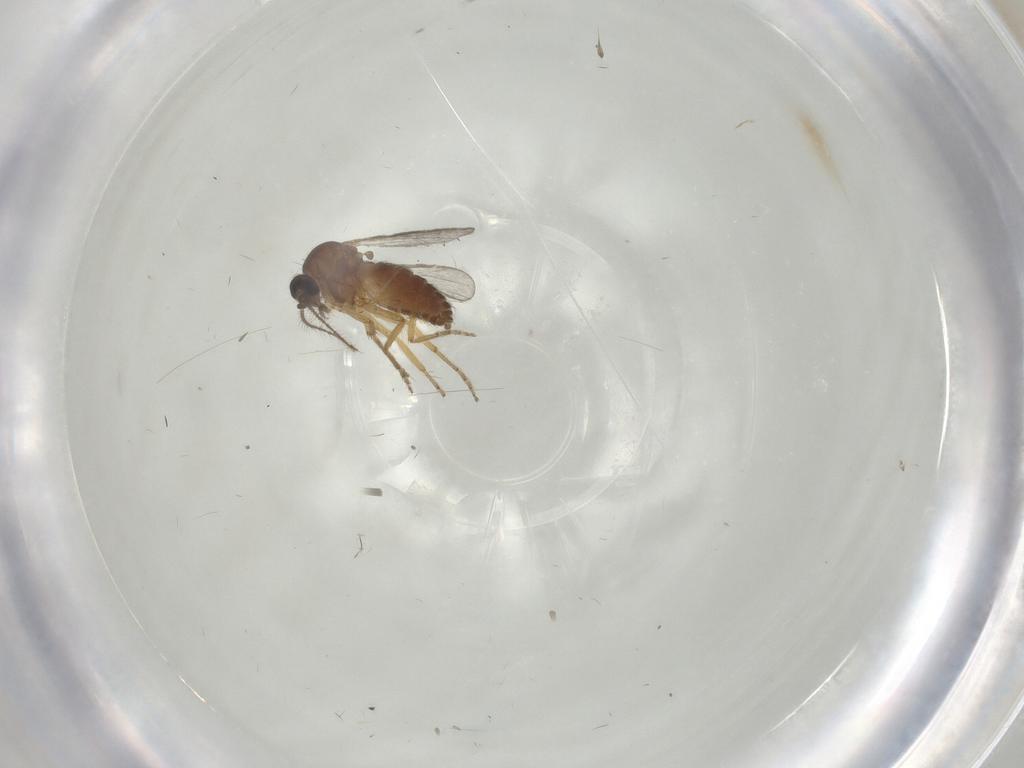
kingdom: Animalia
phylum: Arthropoda
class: Insecta
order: Diptera
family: Ceratopogonidae
